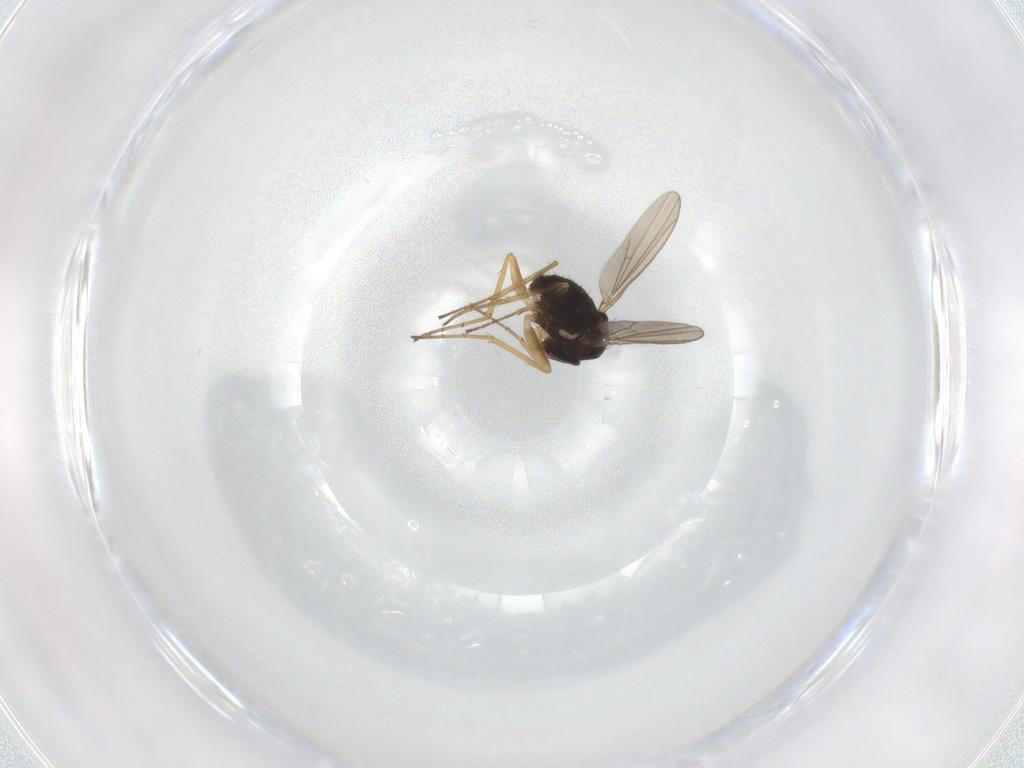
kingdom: Animalia
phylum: Arthropoda
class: Insecta
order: Diptera
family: Dolichopodidae
